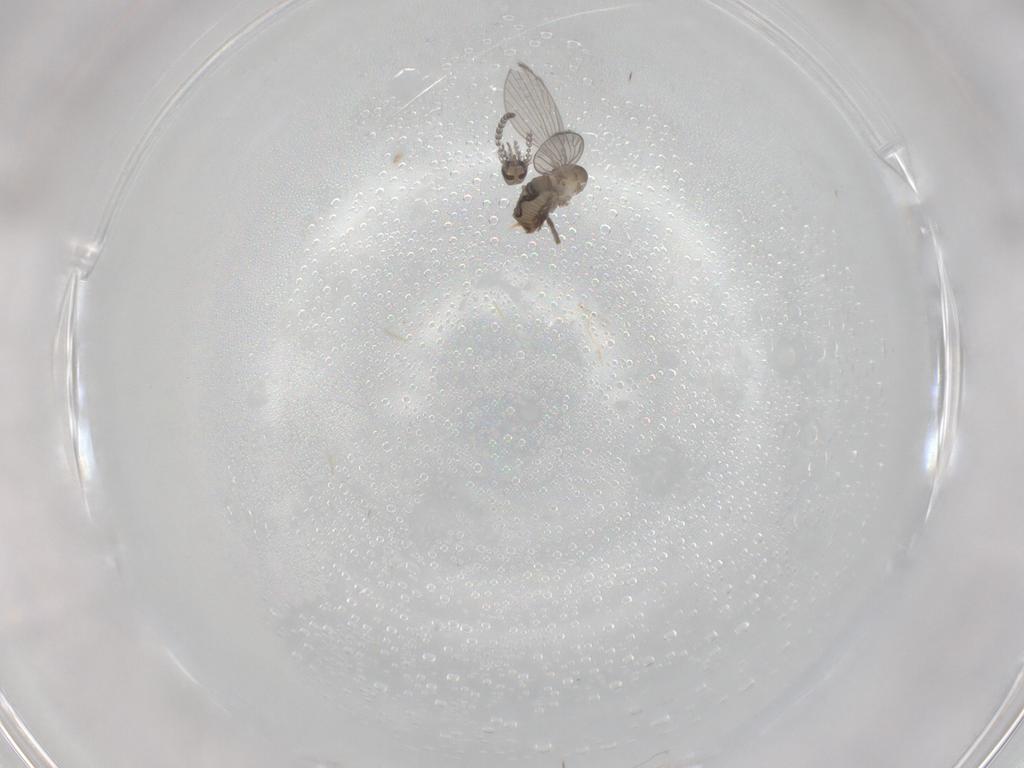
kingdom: Animalia
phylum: Arthropoda
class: Insecta
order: Diptera
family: Psychodidae
